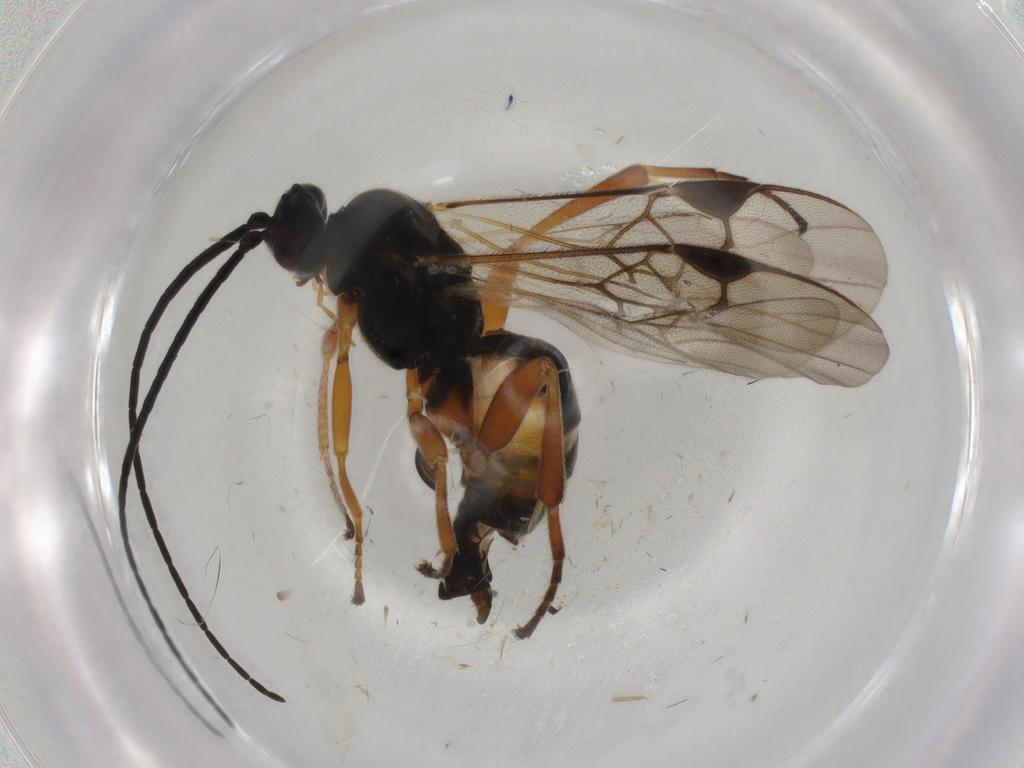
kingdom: Animalia
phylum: Arthropoda
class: Insecta
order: Lepidoptera
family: Tortricidae
